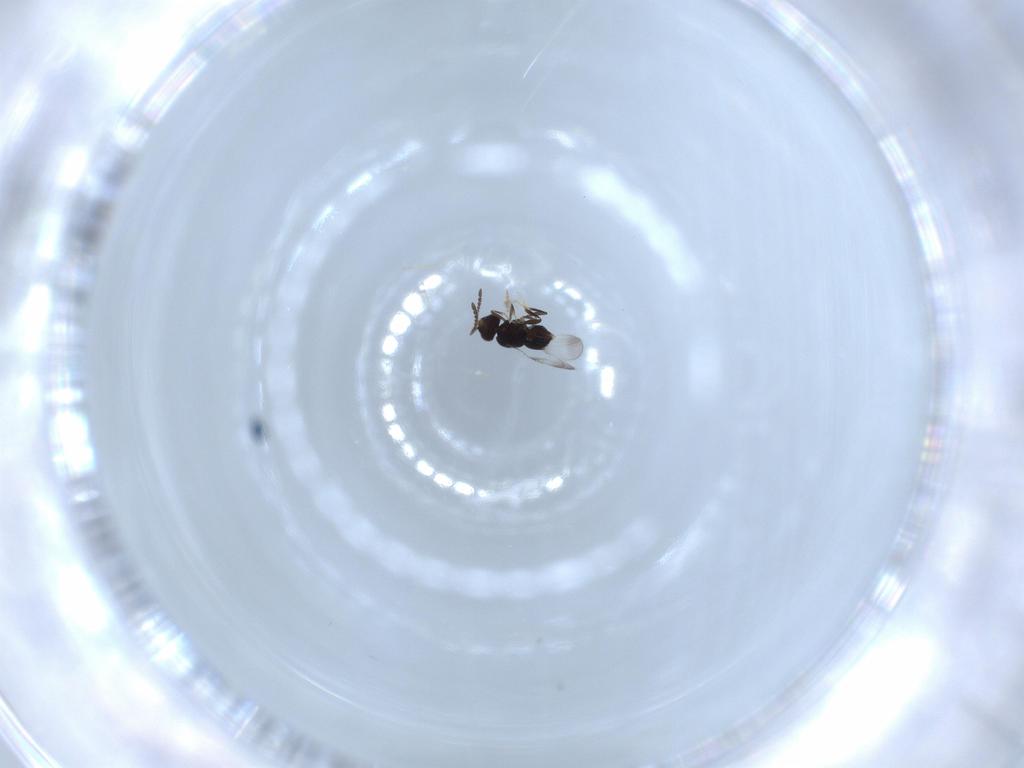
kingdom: Animalia
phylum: Arthropoda
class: Insecta
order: Hymenoptera
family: Ceraphronidae
